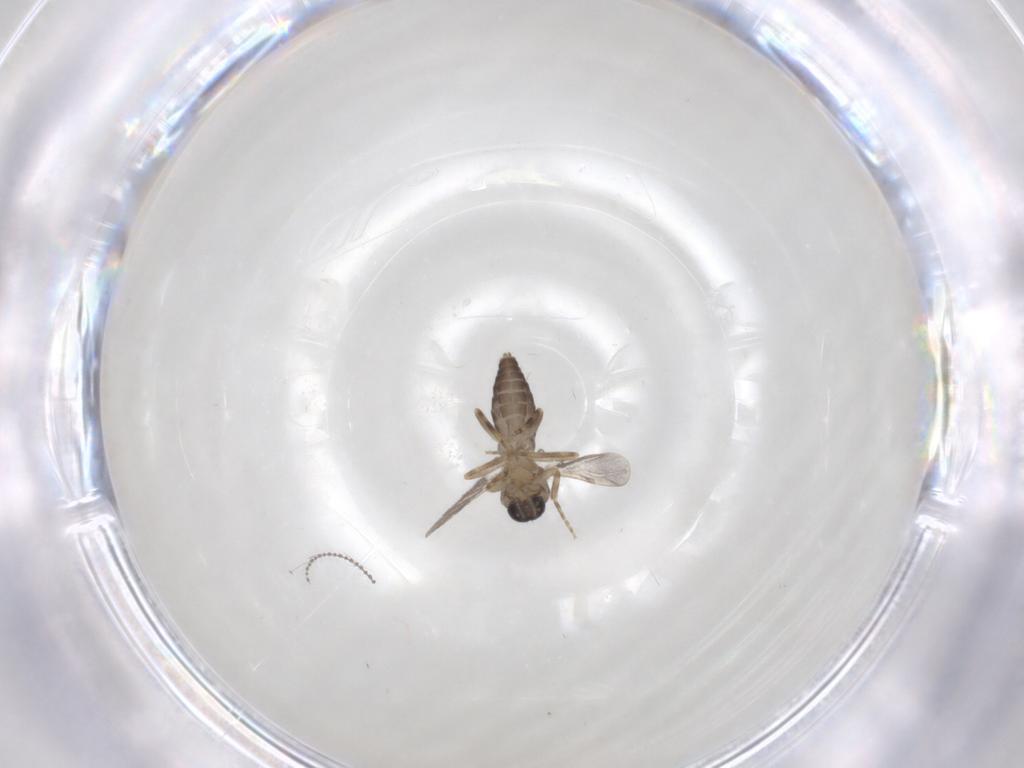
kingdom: Animalia
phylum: Arthropoda
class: Insecta
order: Diptera
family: Ceratopogonidae
